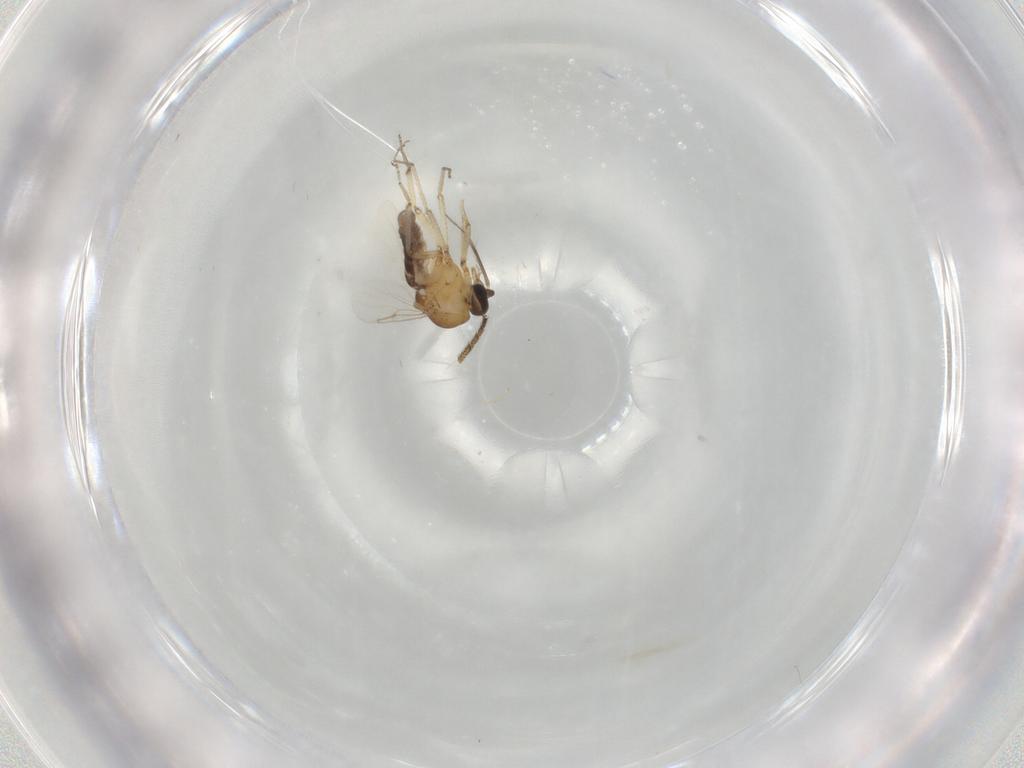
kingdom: Animalia
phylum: Arthropoda
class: Insecta
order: Diptera
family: Ceratopogonidae
